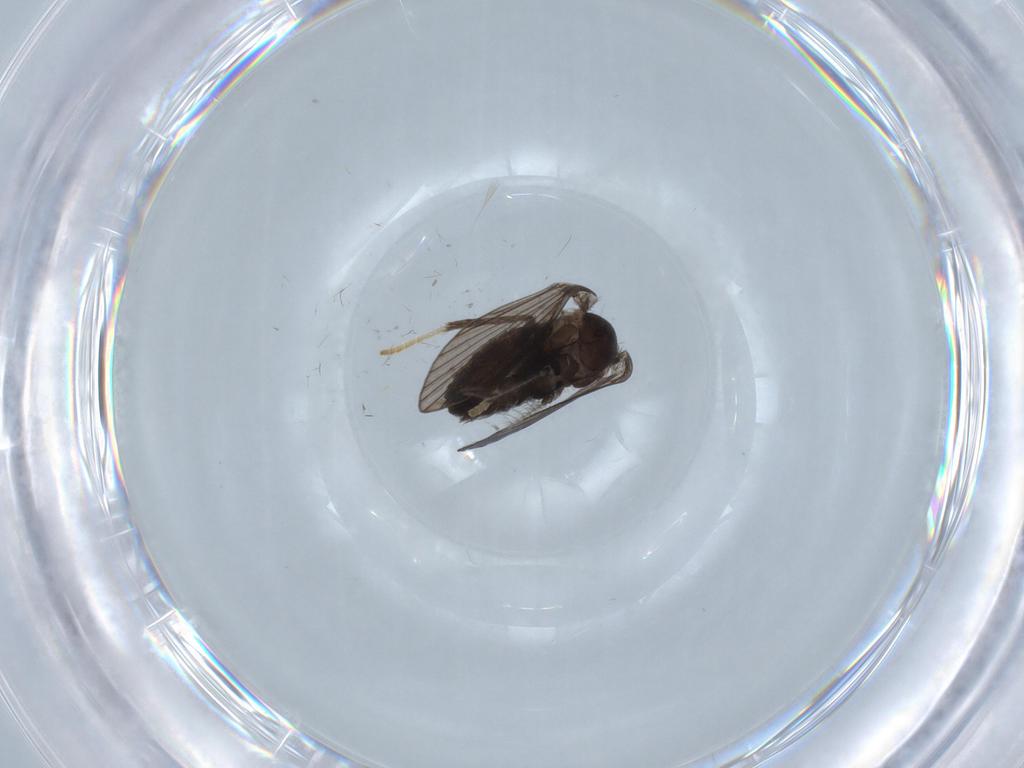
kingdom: Animalia
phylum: Arthropoda
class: Insecta
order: Diptera
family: Psychodidae
